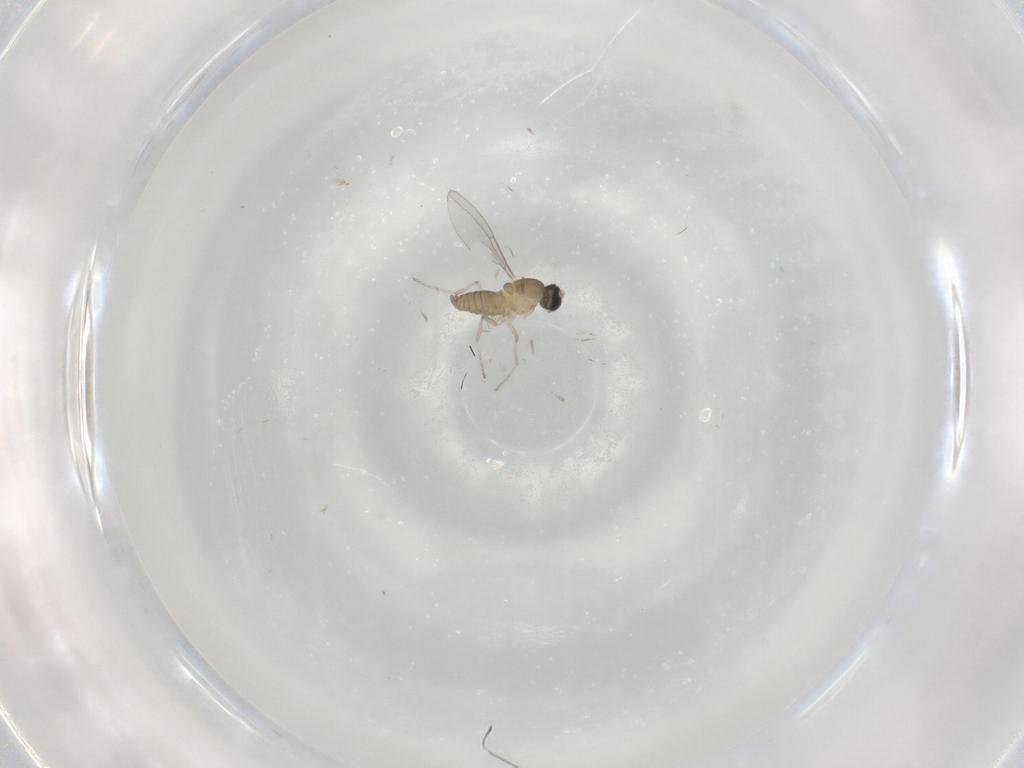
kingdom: Animalia
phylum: Arthropoda
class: Insecta
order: Diptera
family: Cecidomyiidae
